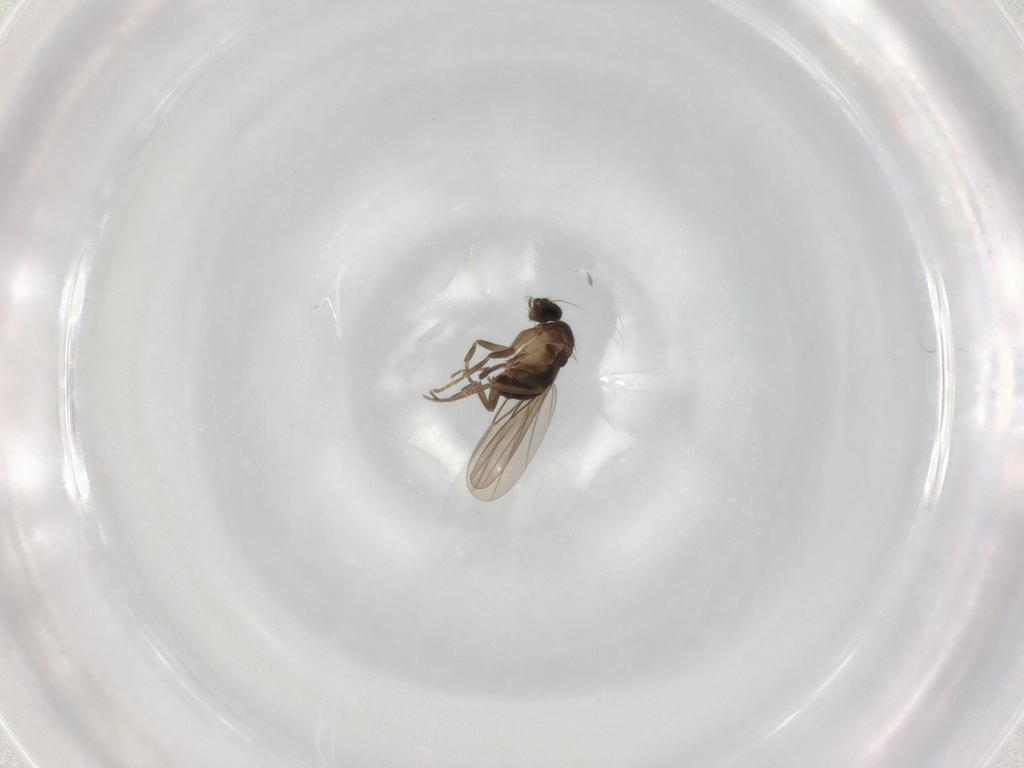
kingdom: Animalia
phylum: Arthropoda
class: Insecta
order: Diptera
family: Phoridae
